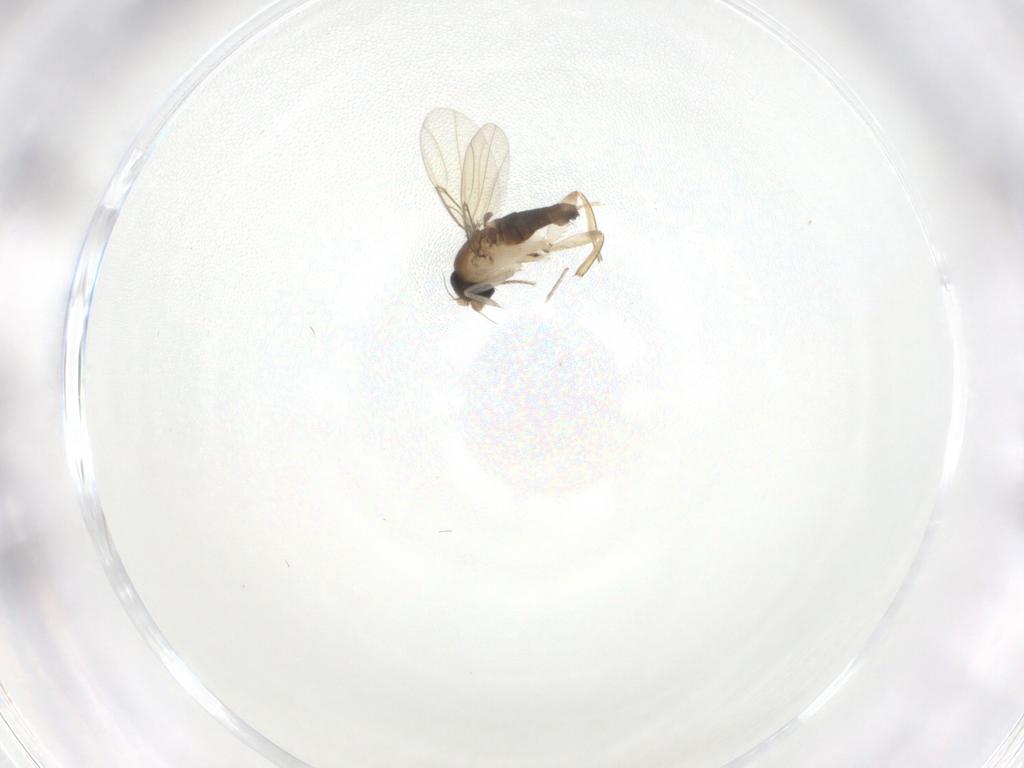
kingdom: Animalia
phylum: Arthropoda
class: Insecta
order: Diptera
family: Phoridae
